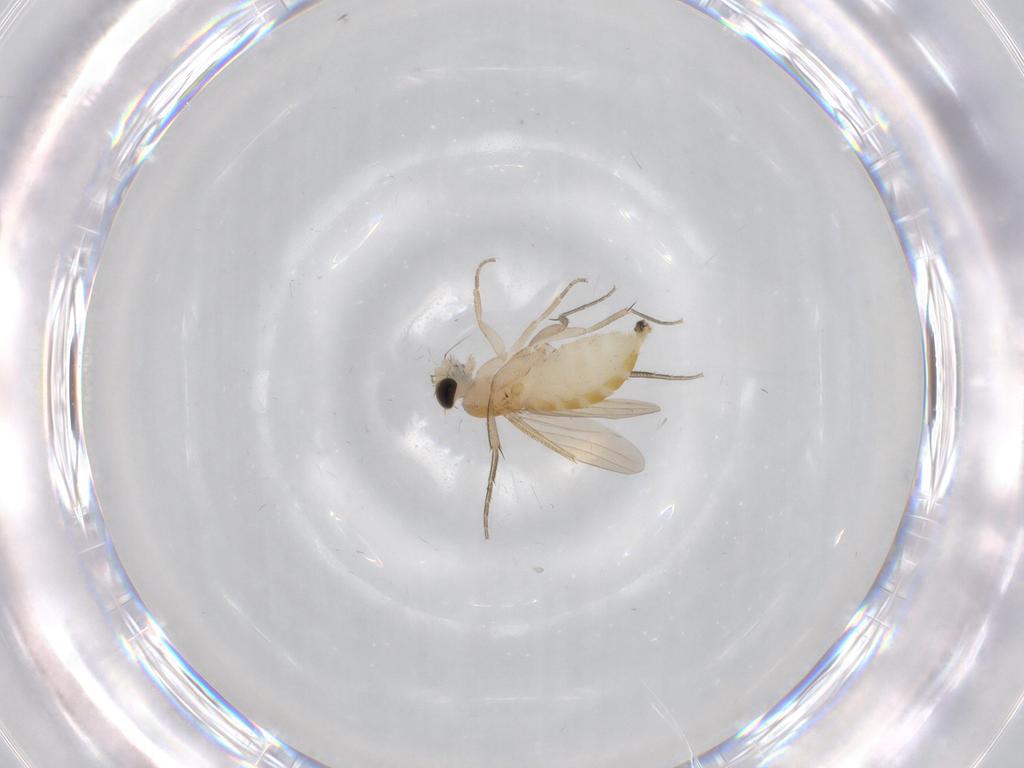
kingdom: Animalia
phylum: Arthropoda
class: Insecta
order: Diptera
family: Cecidomyiidae
